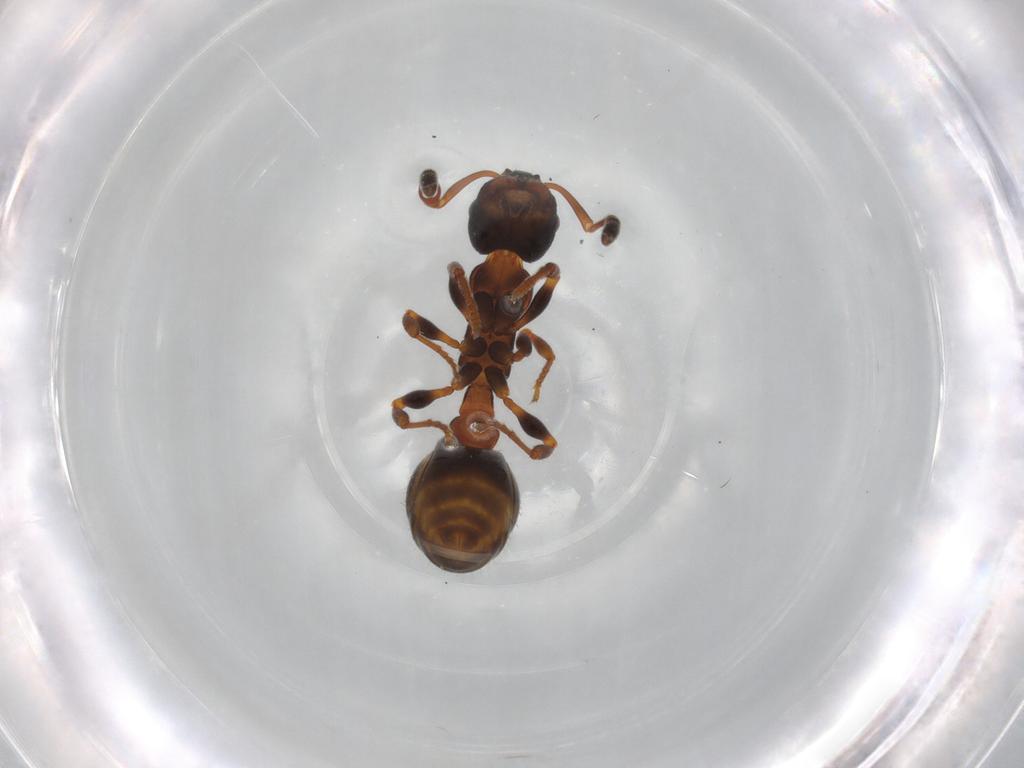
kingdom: Animalia
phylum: Arthropoda
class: Insecta
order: Hymenoptera
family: Formicidae
